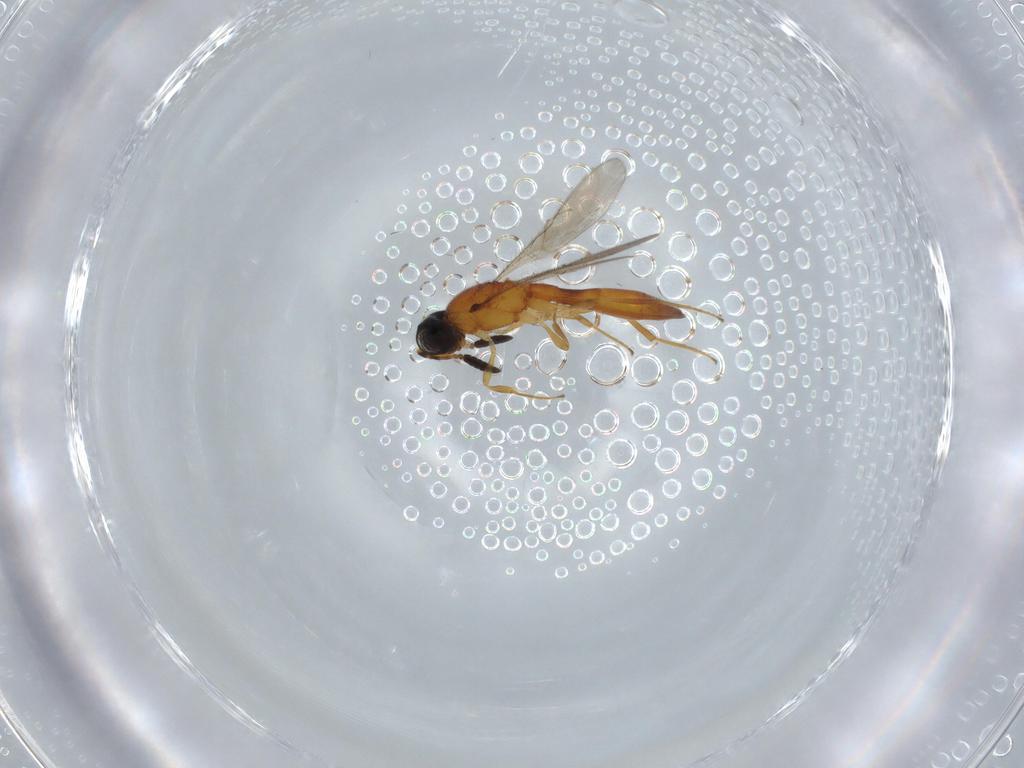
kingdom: Animalia
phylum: Arthropoda
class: Insecta
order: Hymenoptera
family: Scelionidae
